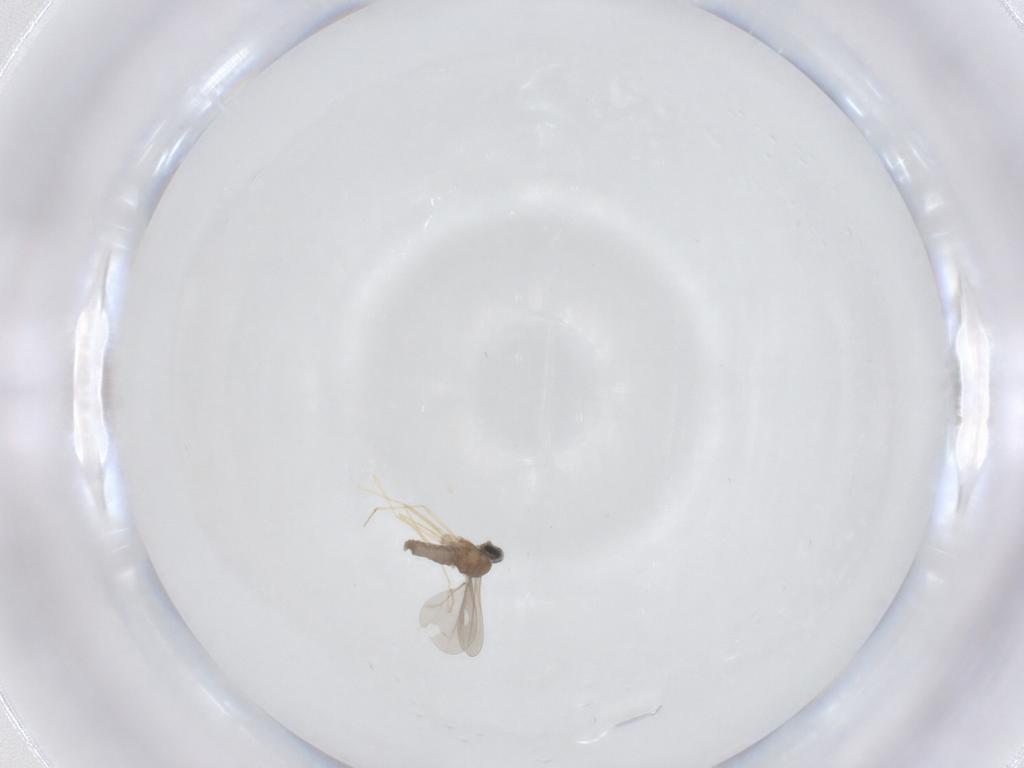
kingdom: Animalia
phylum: Arthropoda
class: Insecta
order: Diptera
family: Cecidomyiidae
